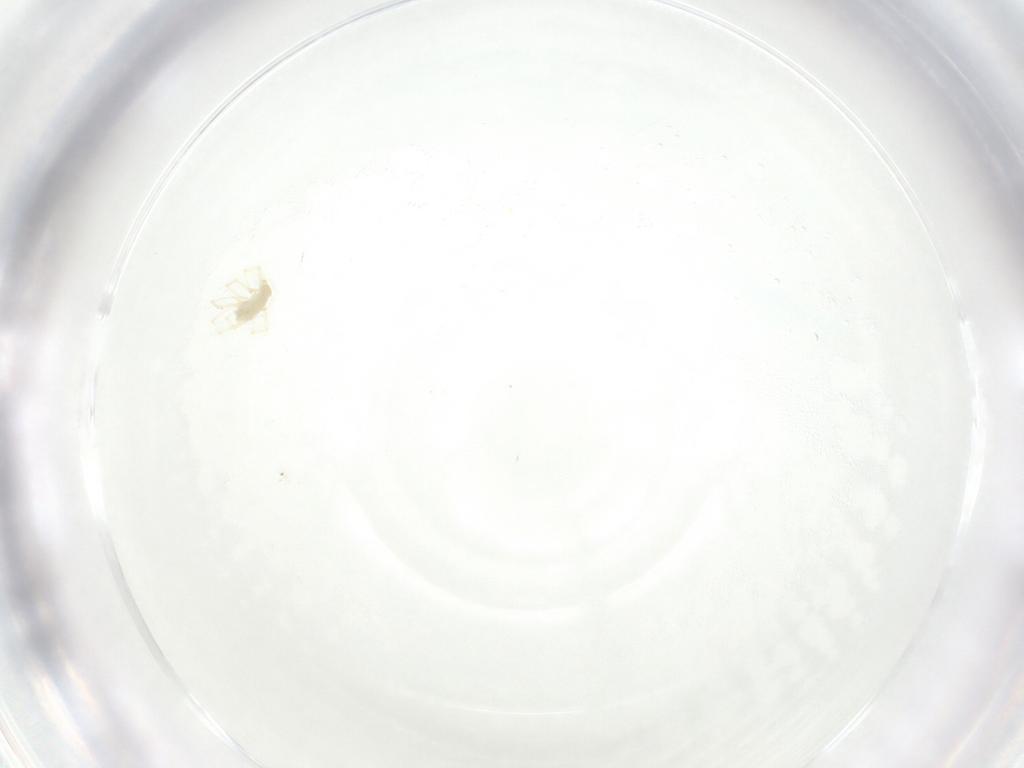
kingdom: Animalia
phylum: Arthropoda
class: Arachnida
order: Trombidiformes
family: Erythraeidae
